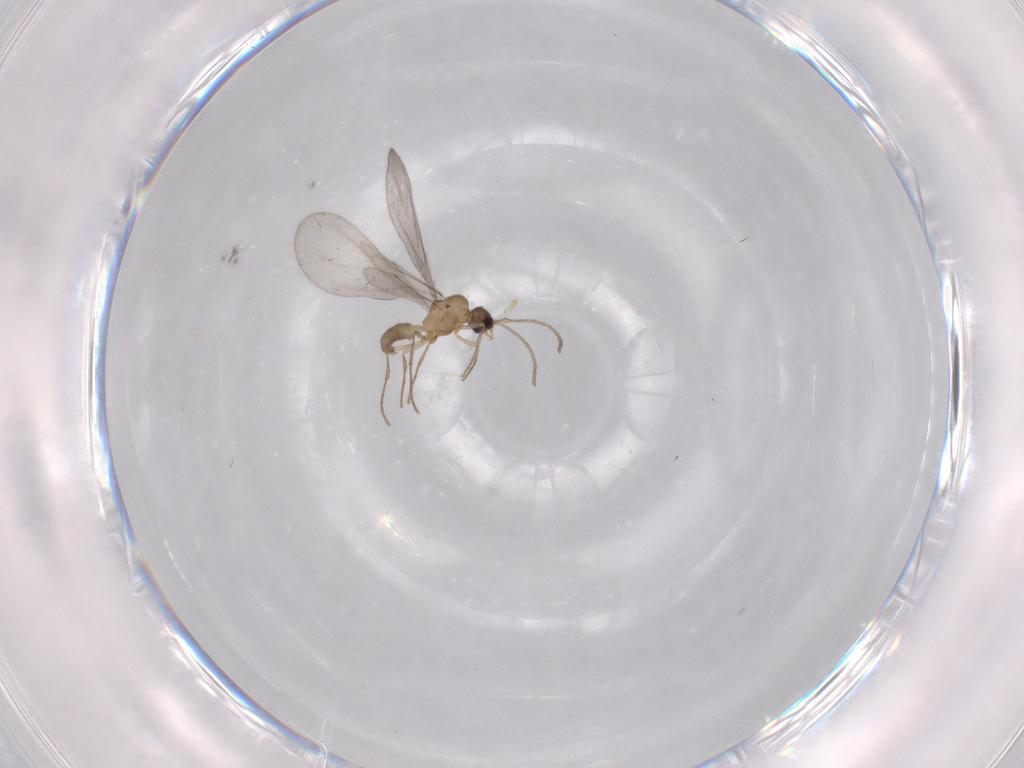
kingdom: Animalia
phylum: Arthropoda
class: Insecta
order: Hymenoptera
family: Formicidae
